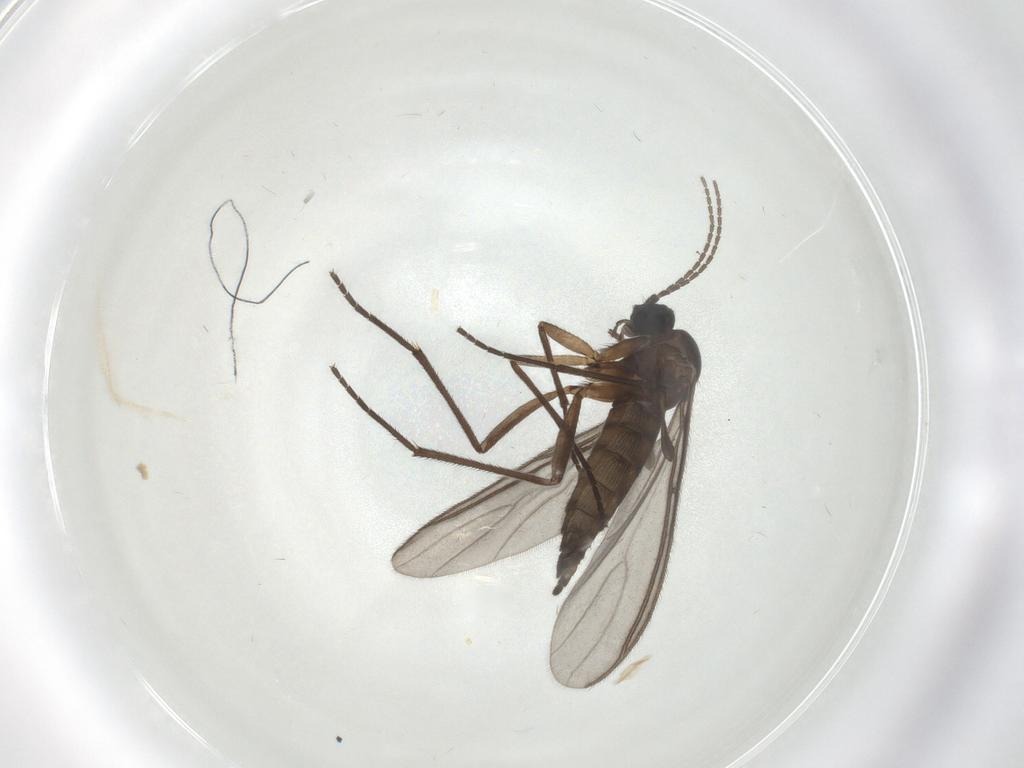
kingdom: Animalia
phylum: Arthropoda
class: Insecta
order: Diptera
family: Sciaridae
